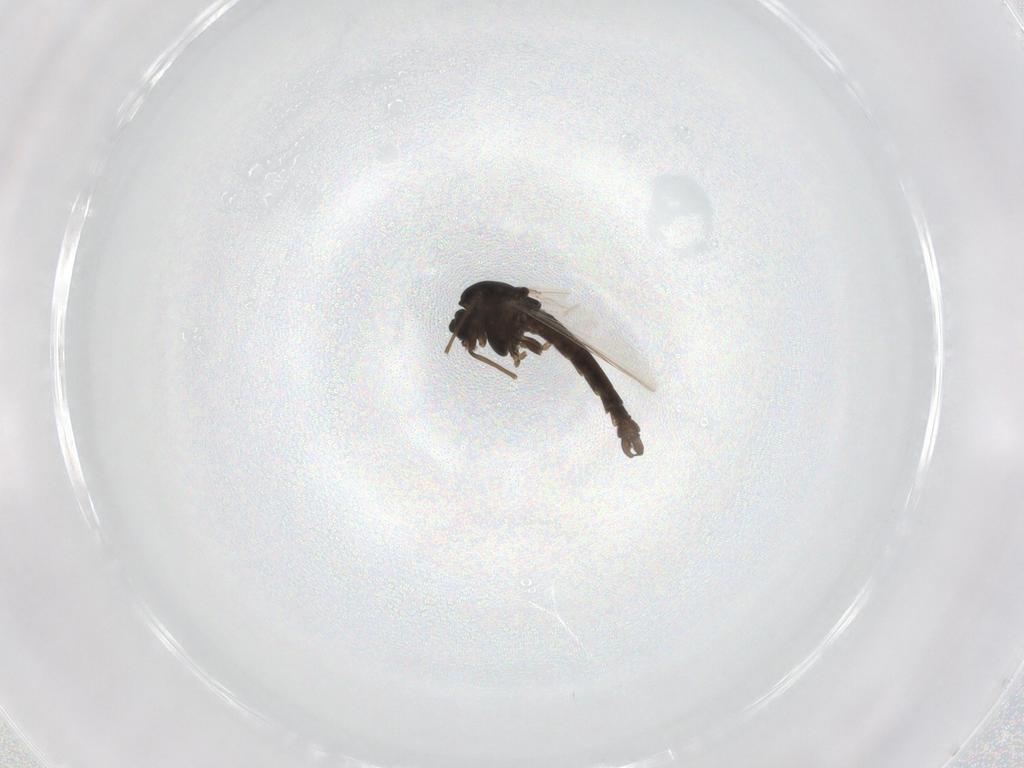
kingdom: Animalia
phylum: Arthropoda
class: Insecta
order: Diptera
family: Chironomidae
